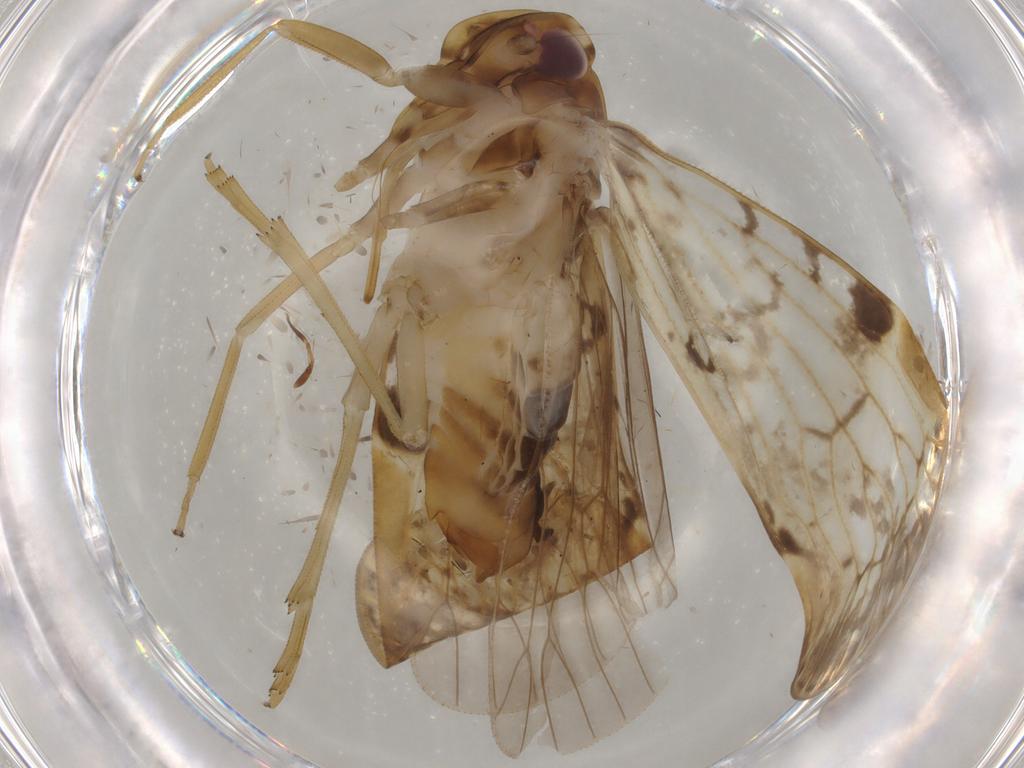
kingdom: Animalia
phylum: Arthropoda
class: Insecta
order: Hemiptera
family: Cixiidae
